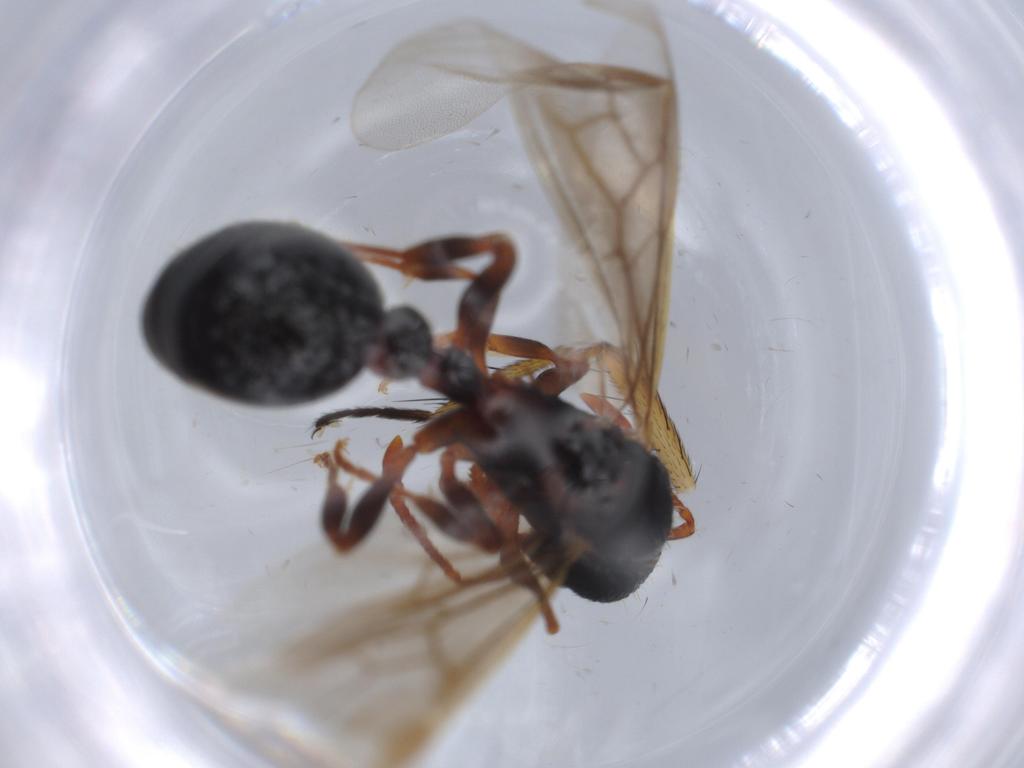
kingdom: Animalia
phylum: Arthropoda
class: Insecta
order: Hymenoptera
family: Formicidae
